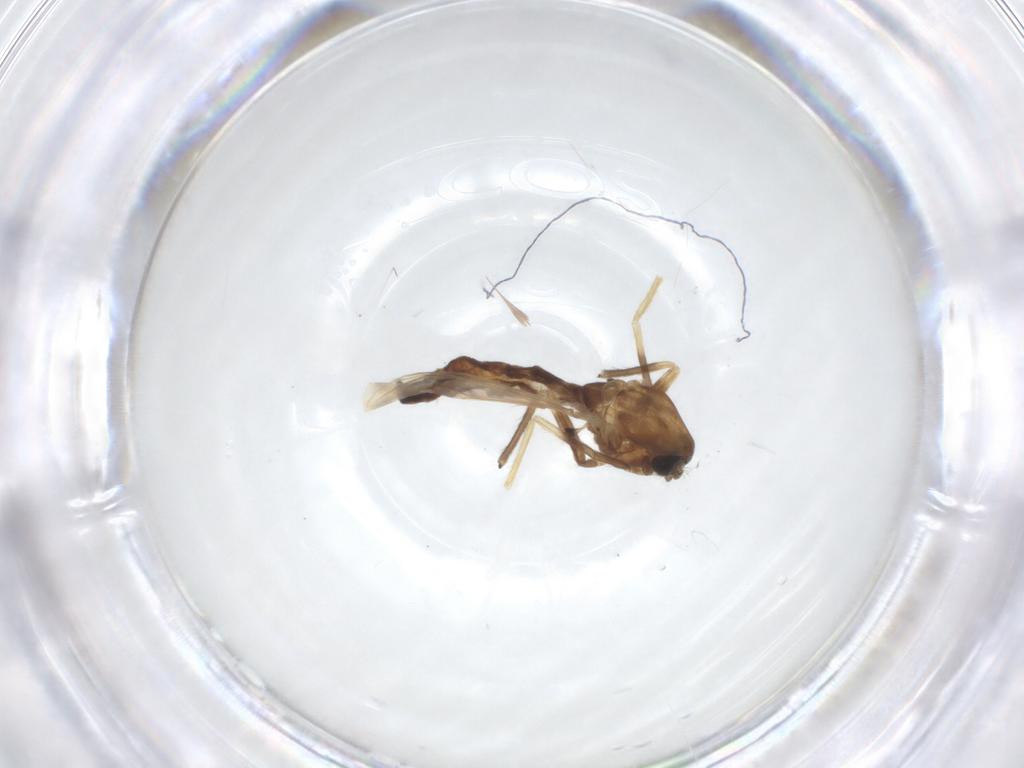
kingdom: Animalia
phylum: Arthropoda
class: Insecta
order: Diptera
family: Chironomidae
